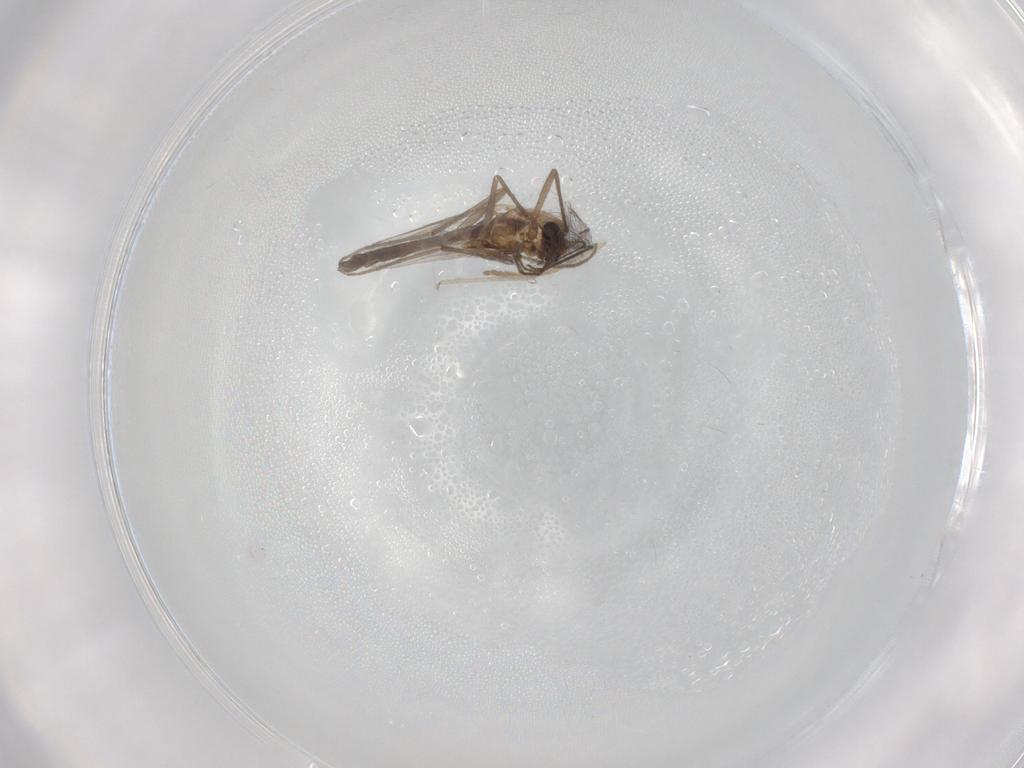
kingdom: Animalia
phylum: Arthropoda
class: Insecta
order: Diptera
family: Chironomidae
